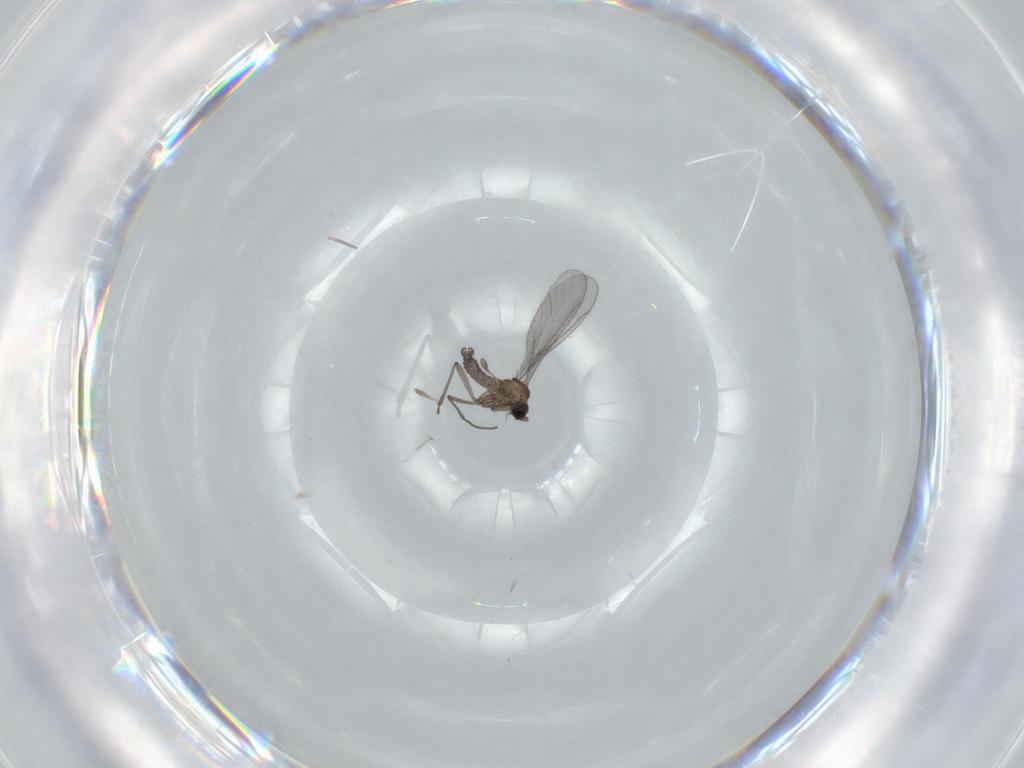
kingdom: Animalia
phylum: Arthropoda
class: Insecta
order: Diptera
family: Sciaridae
